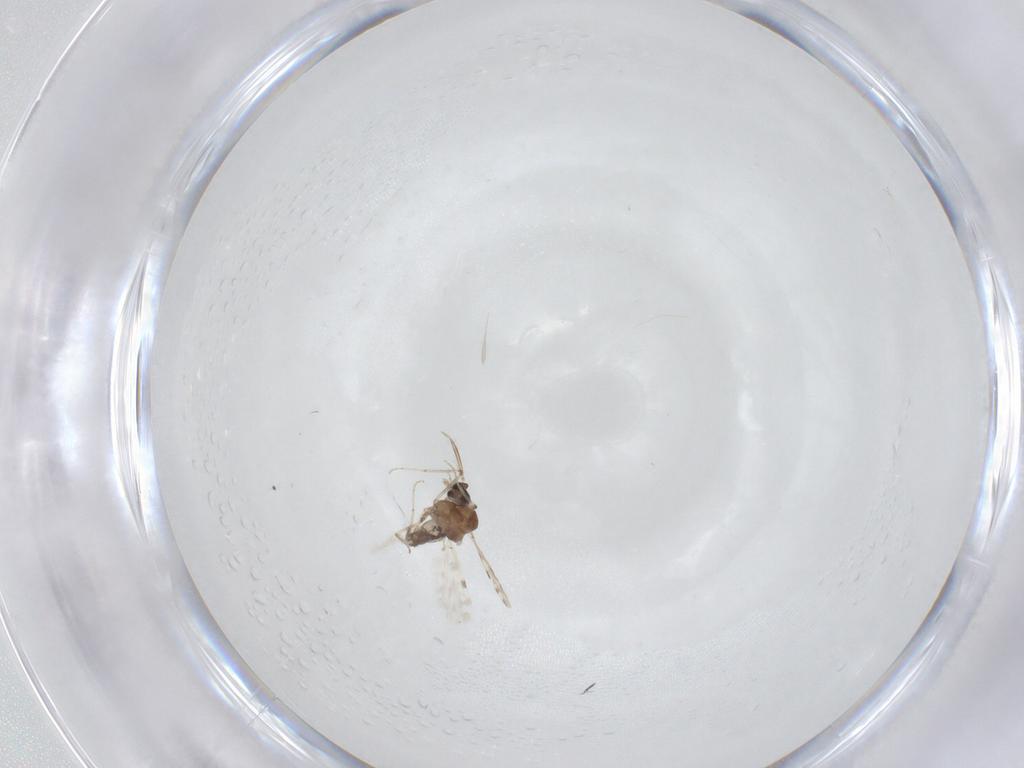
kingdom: Animalia
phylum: Arthropoda
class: Insecta
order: Diptera
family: Ceratopogonidae
